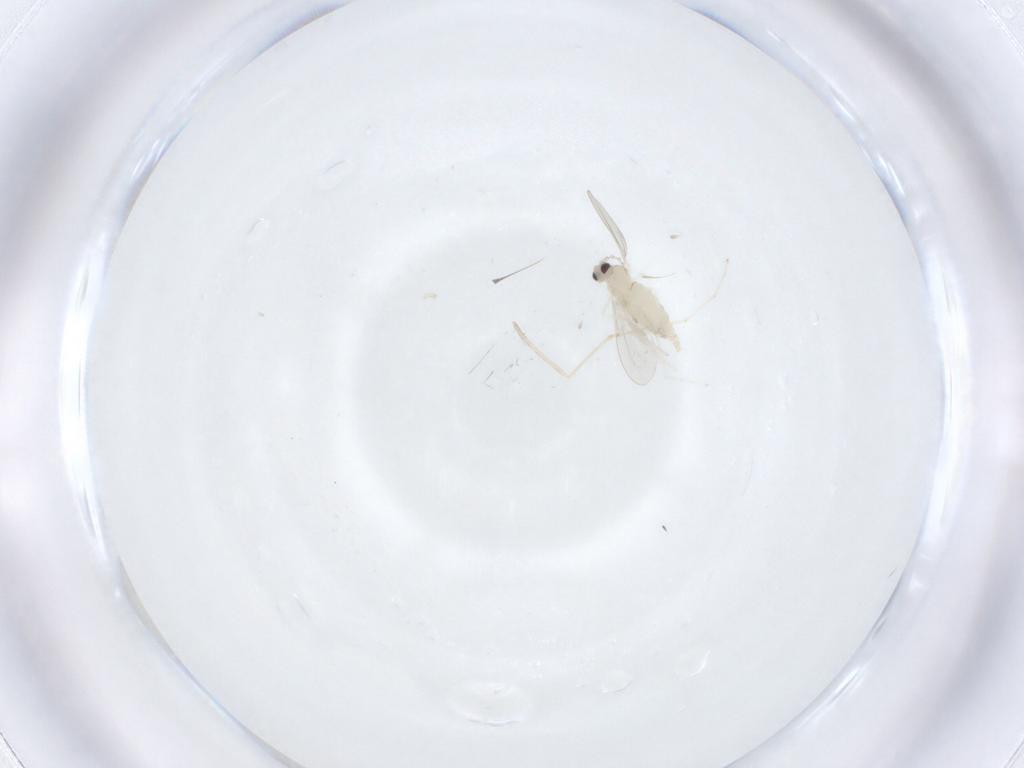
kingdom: Animalia
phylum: Arthropoda
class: Insecta
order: Diptera
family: Cecidomyiidae
